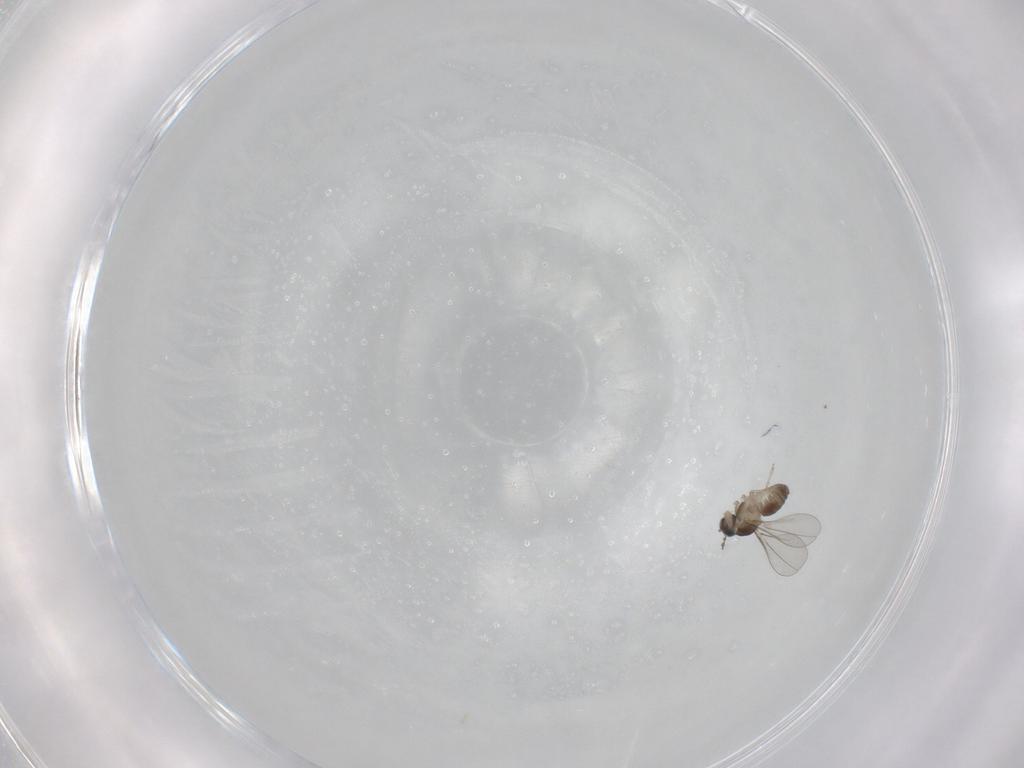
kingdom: Animalia
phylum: Arthropoda
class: Insecta
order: Diptera
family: Cecidomyiidae
